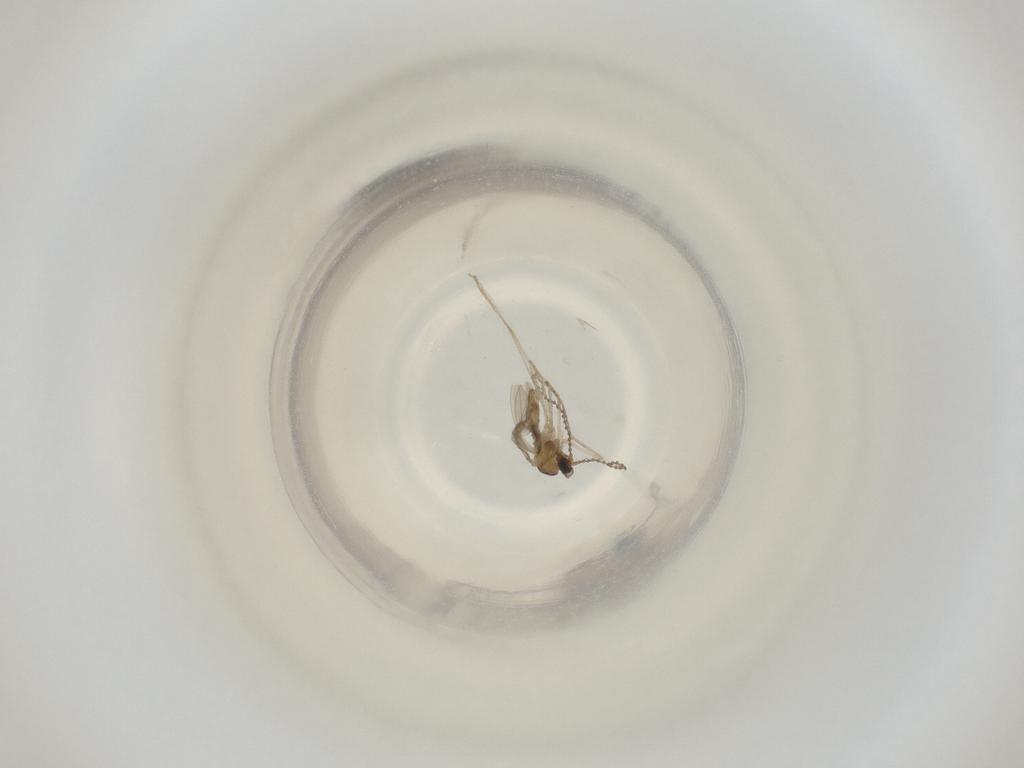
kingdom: Animalia
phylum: Arthropoda
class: Insecta
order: Diptera
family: Cecidomyiidae
